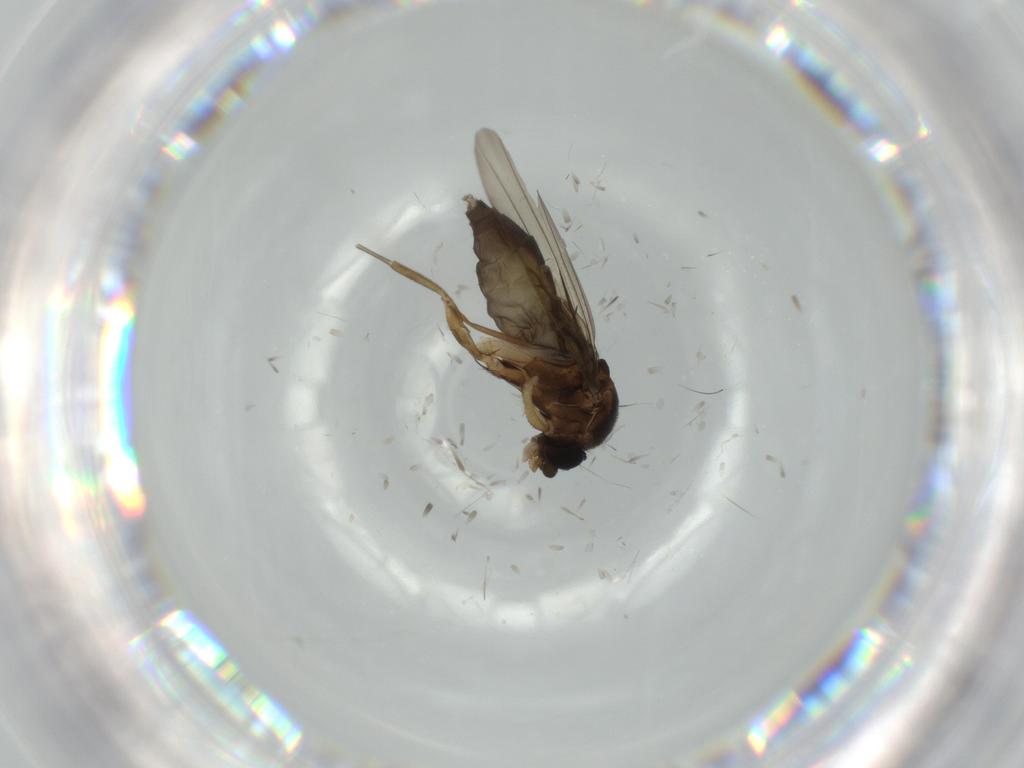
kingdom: Animalia
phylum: Arthropoda
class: Insecta
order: Diptera
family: Phoridae
